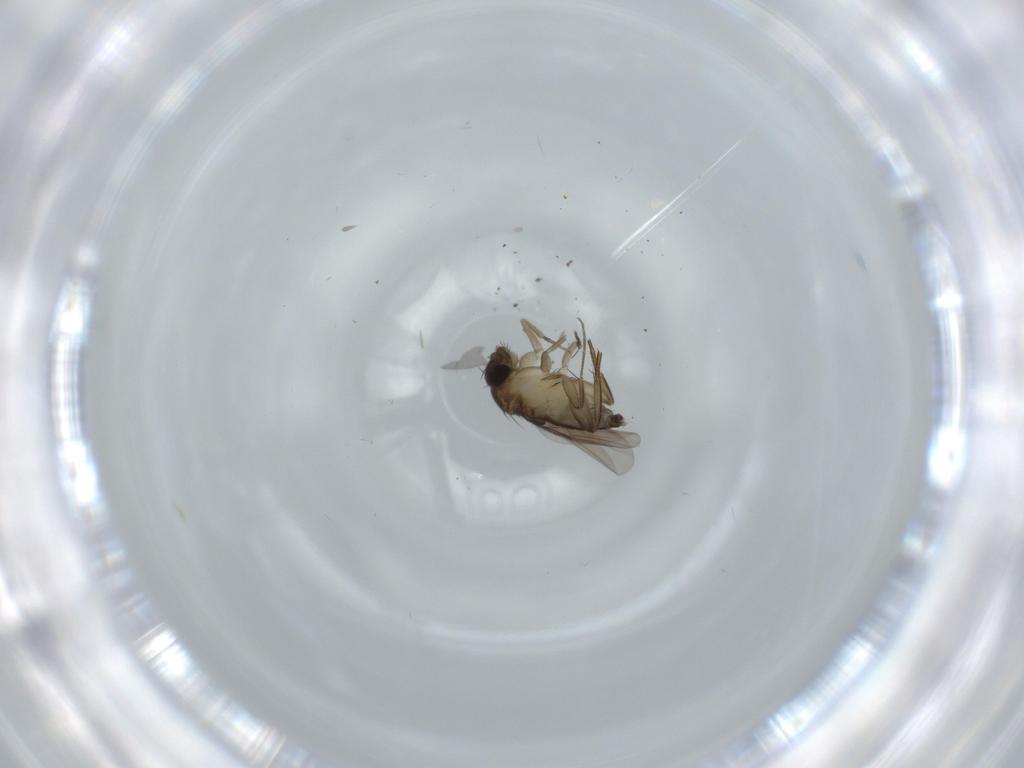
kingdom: Animalia
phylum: Arthropoda
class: Insecta
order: Diptera
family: Phoridae
